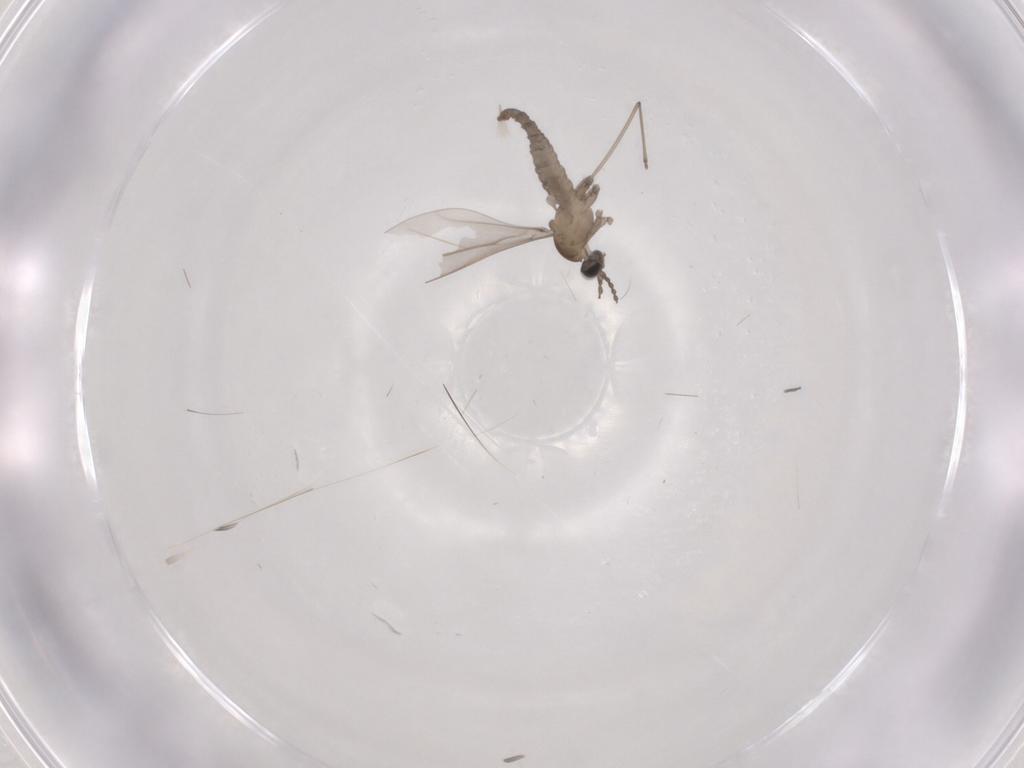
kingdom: Animalia
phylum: Arthropoda
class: Insecta
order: Diptera
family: Cecidomyiidae
